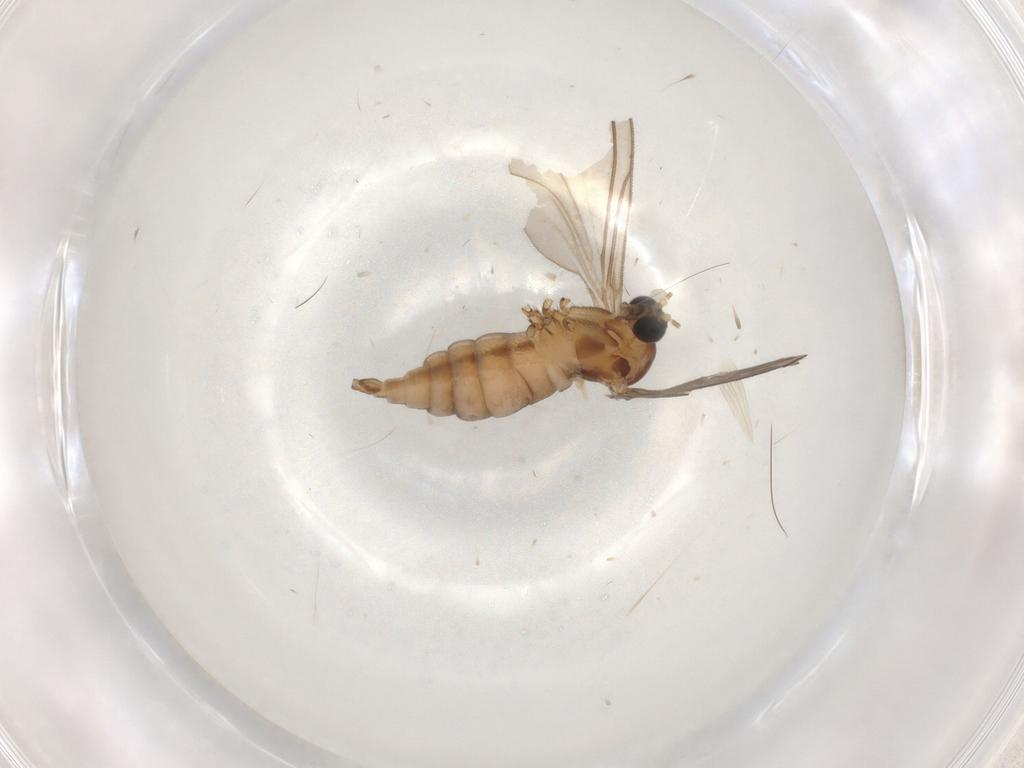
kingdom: Animalia
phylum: Arthropoda
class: Insecta
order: Diptera
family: Sciaridae
